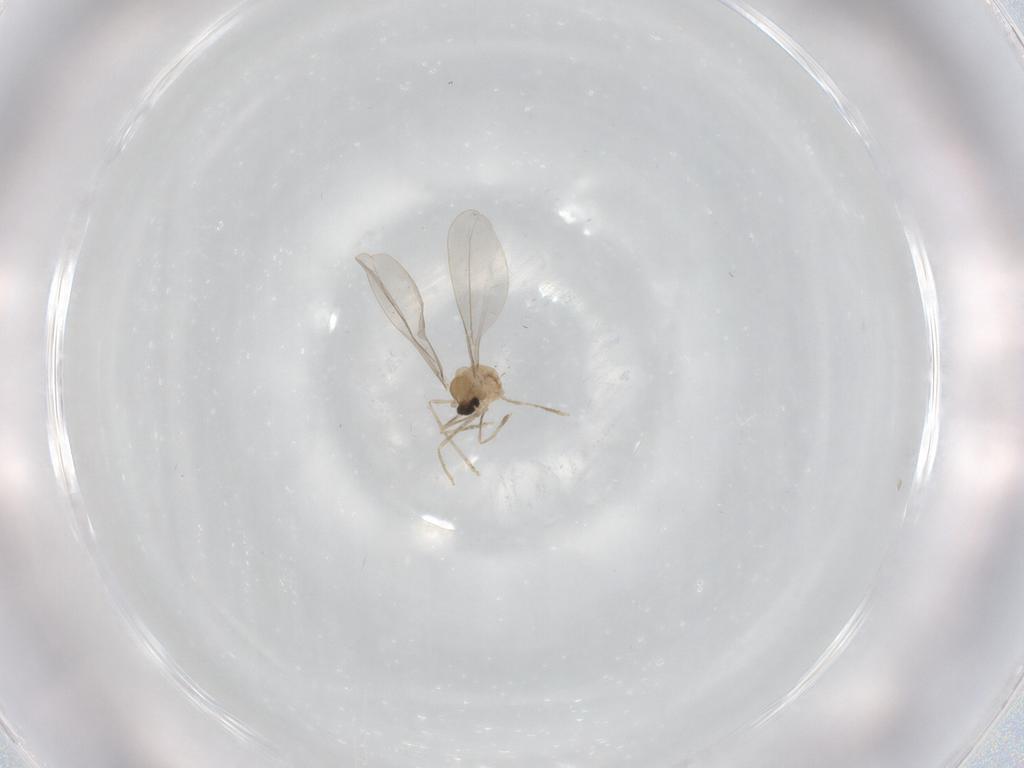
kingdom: Animalia
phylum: Arthropoda
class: Insecta
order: Diptera
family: Cecidomyiidae
